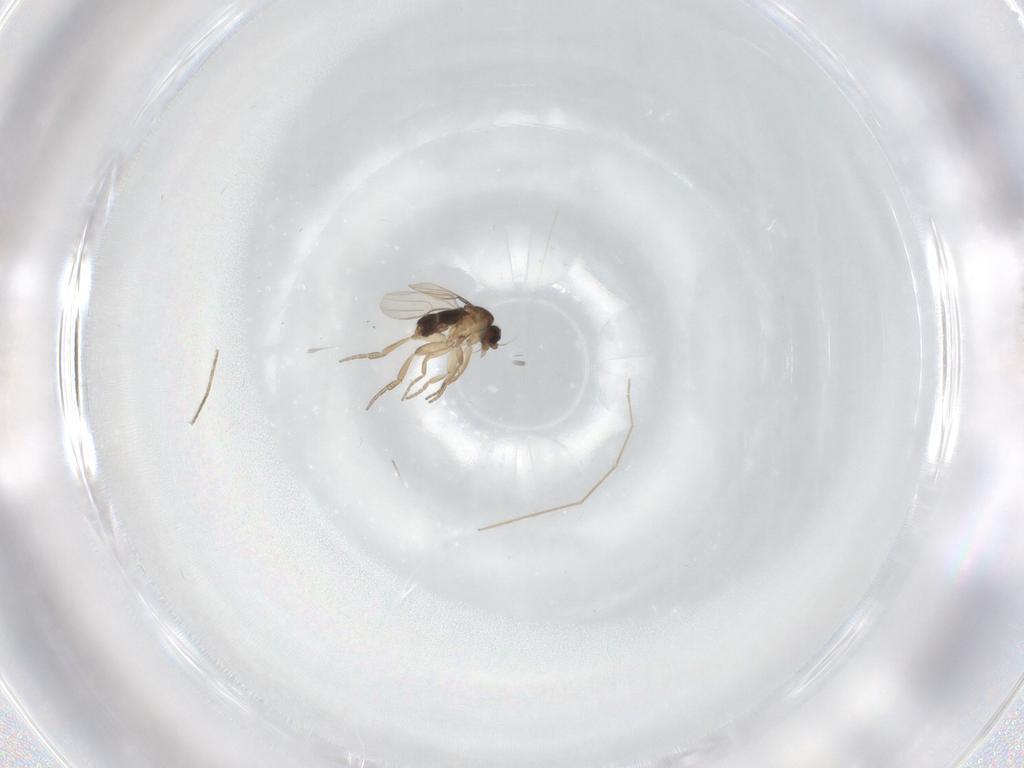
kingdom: Animalia
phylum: Arthropoda
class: Insecta
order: Diptera
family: Phoridae
